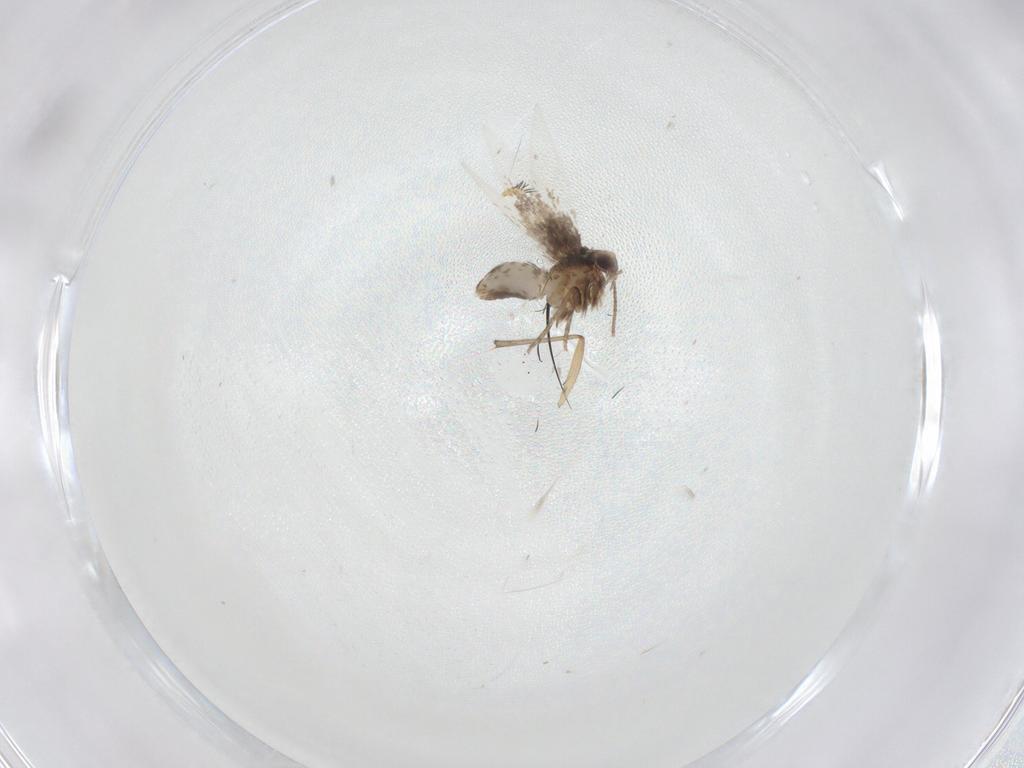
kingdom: Animalia
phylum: Arthropoda
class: Insecta
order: Lepidoptera
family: Nepticulidae
